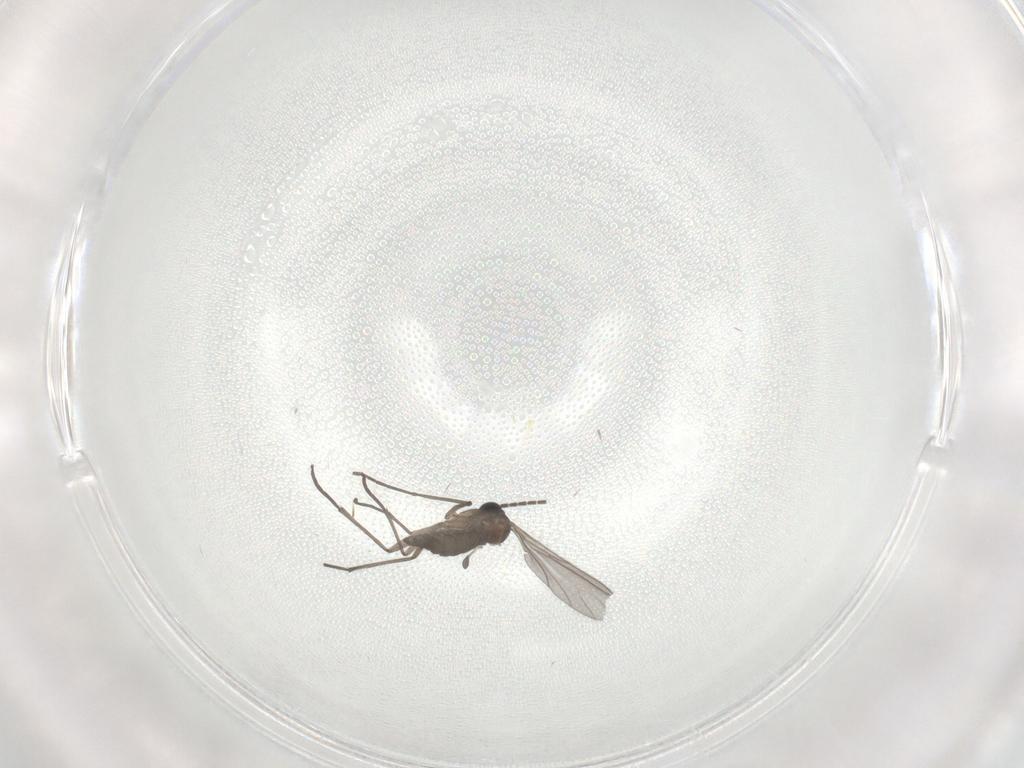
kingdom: Animalia
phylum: Arthropoda
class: Insecta
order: Diptera
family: Sciaridae
